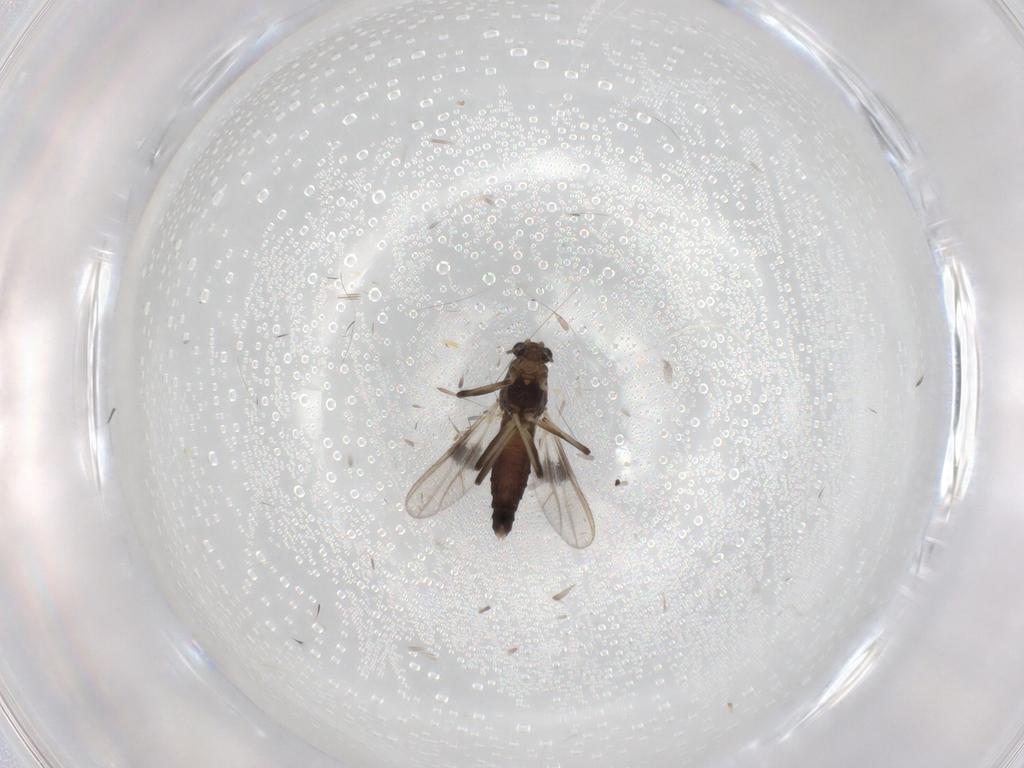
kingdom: Animalia
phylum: Arthropoda
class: Insecta
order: Diptera
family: Chironomidae
